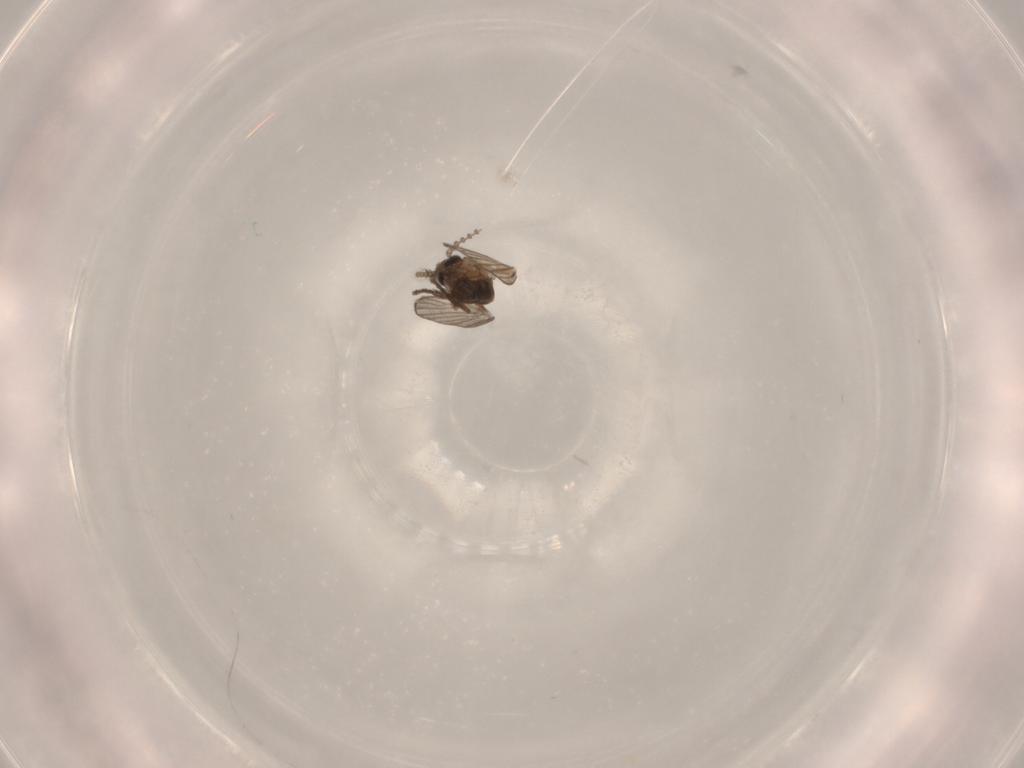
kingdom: Animalia
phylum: Arthropoda
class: Insecta
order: Diptera
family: Psychodidae
